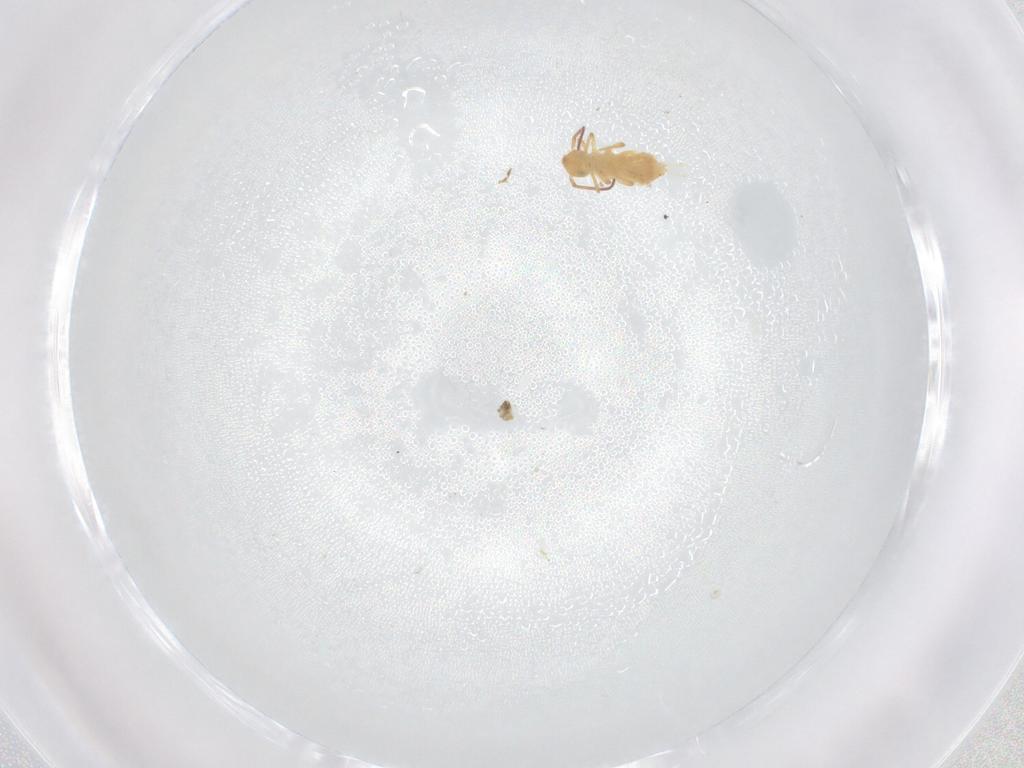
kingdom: Animalia
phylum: Arthropoda
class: Collembola
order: Symphypleona
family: Bourletiellidae
